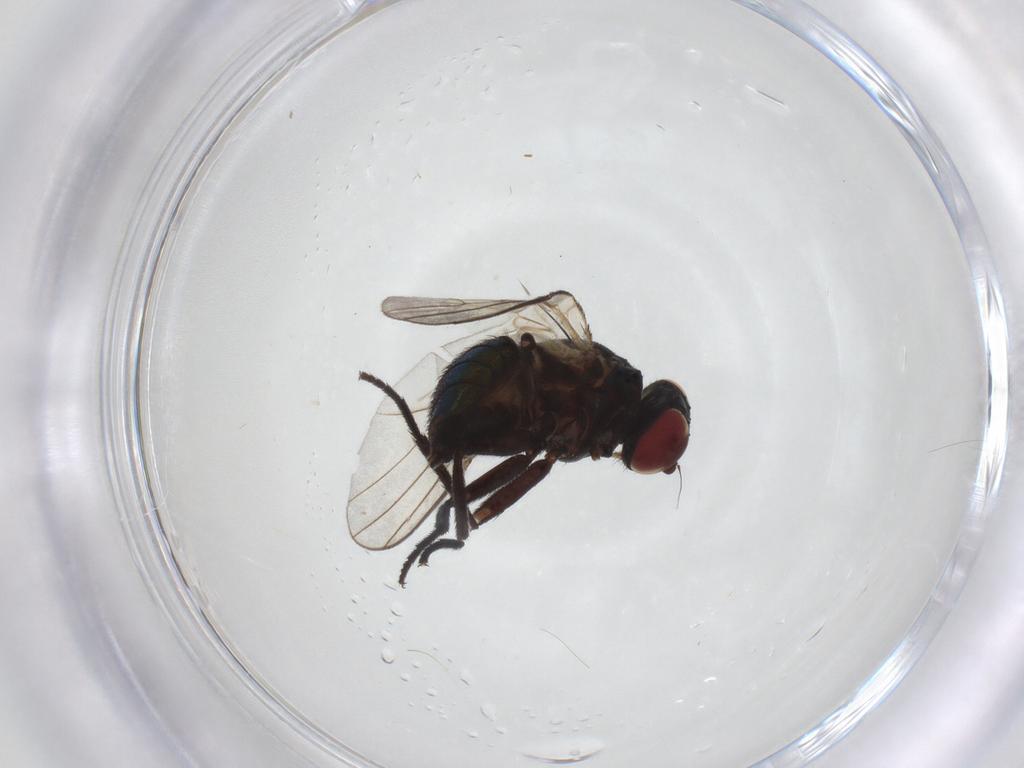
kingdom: Animalia
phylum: Arthropoda
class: Insecta
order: Diptera
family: Agromyzidae
